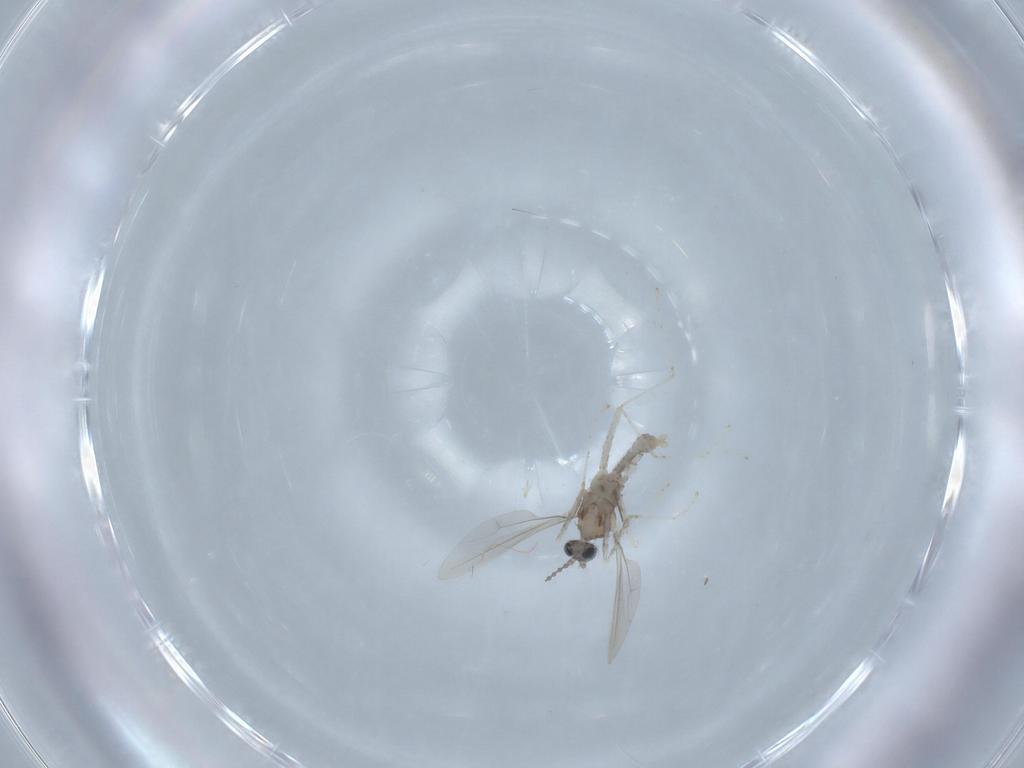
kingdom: Animalia
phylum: Arthropoda
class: Insecta
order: Diptera
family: Cecidomyiidae
